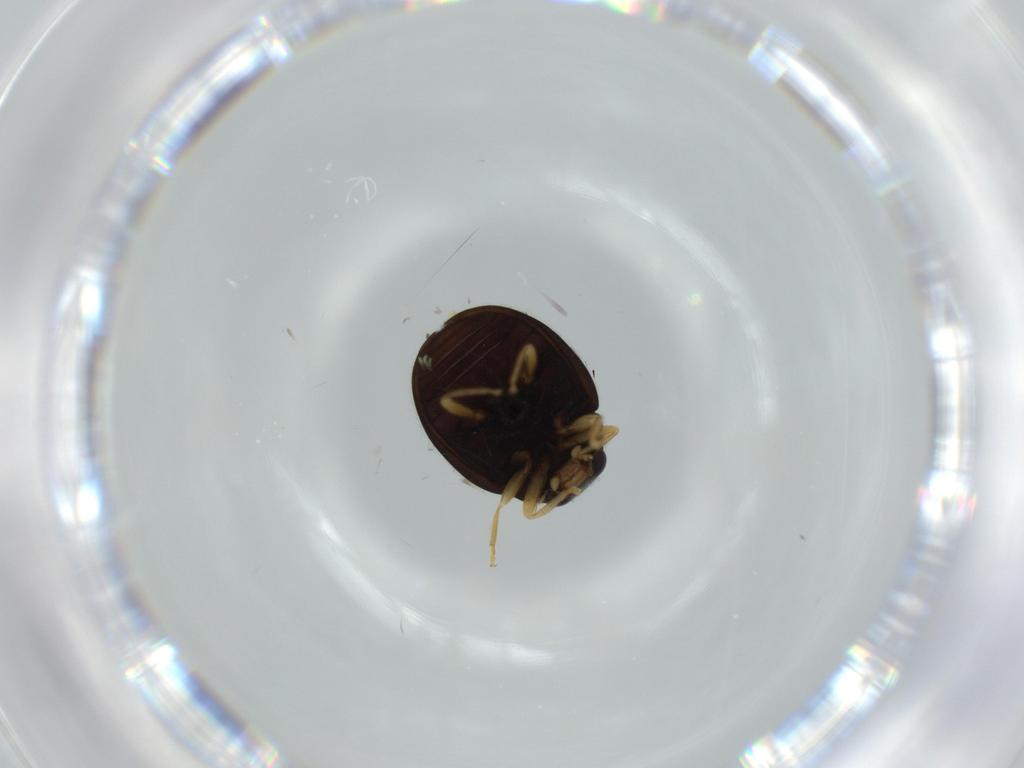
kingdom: Animalia
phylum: Arthropoda
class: Insecta
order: Coleoptera
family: Coccinellidae
